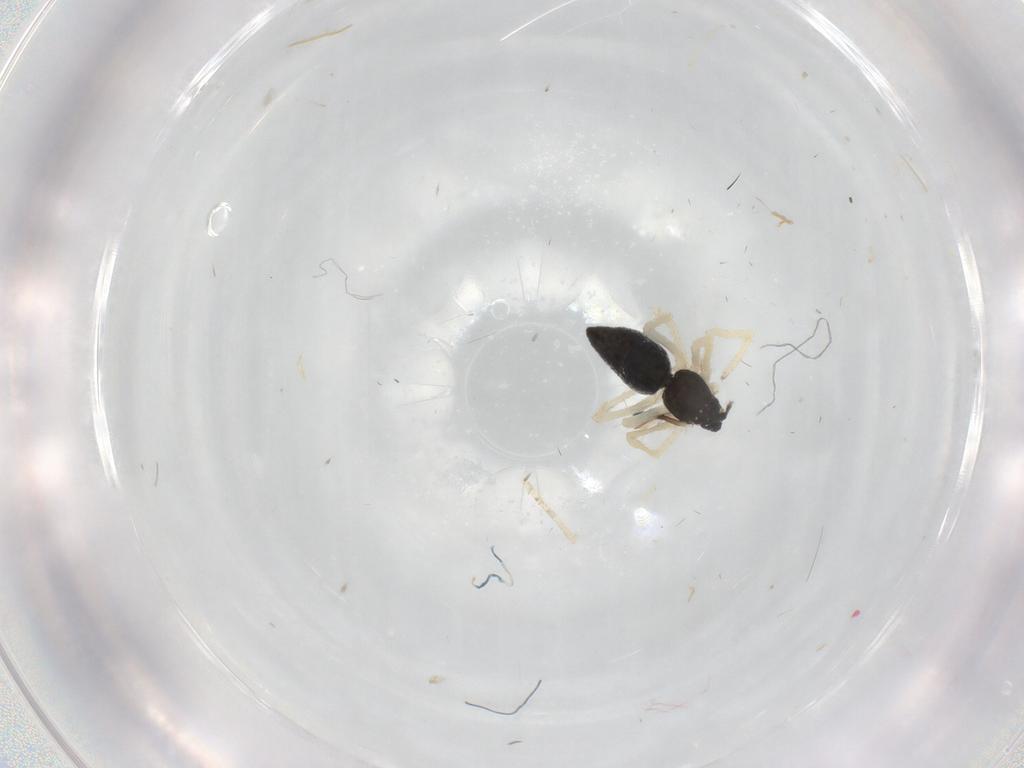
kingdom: Animalia
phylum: Arthropoda
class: Arachnida
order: Araneae
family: Theridiidae
